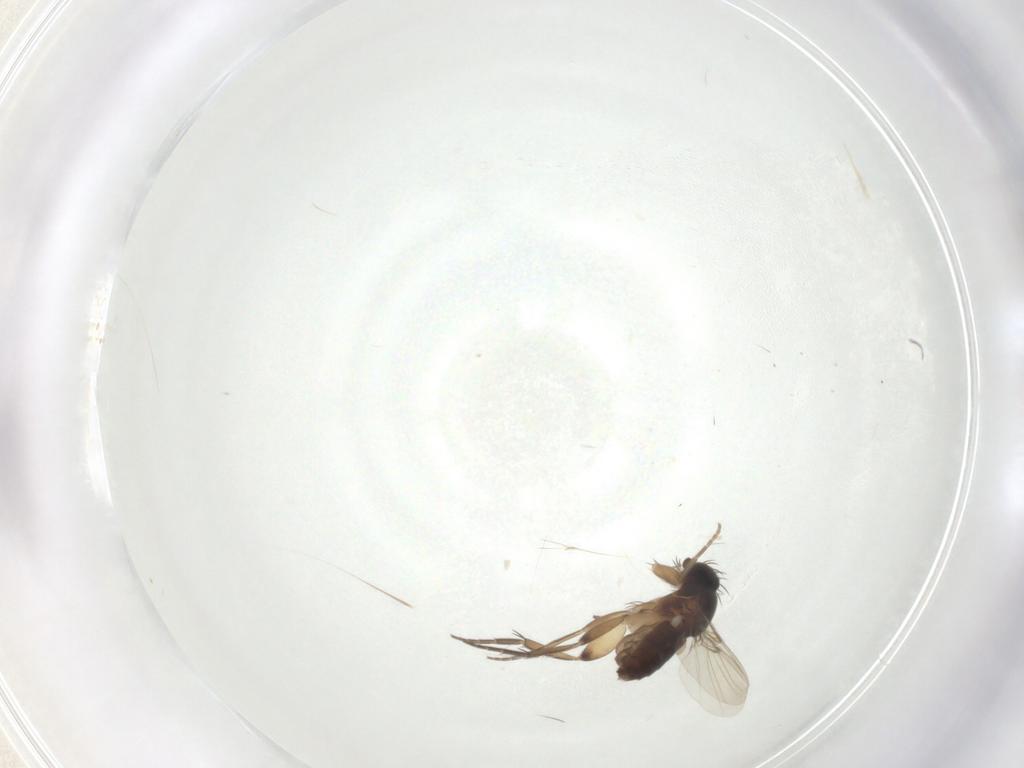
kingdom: Animalia
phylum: Arthropoda
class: Insecta
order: Diptera
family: Phoridae
